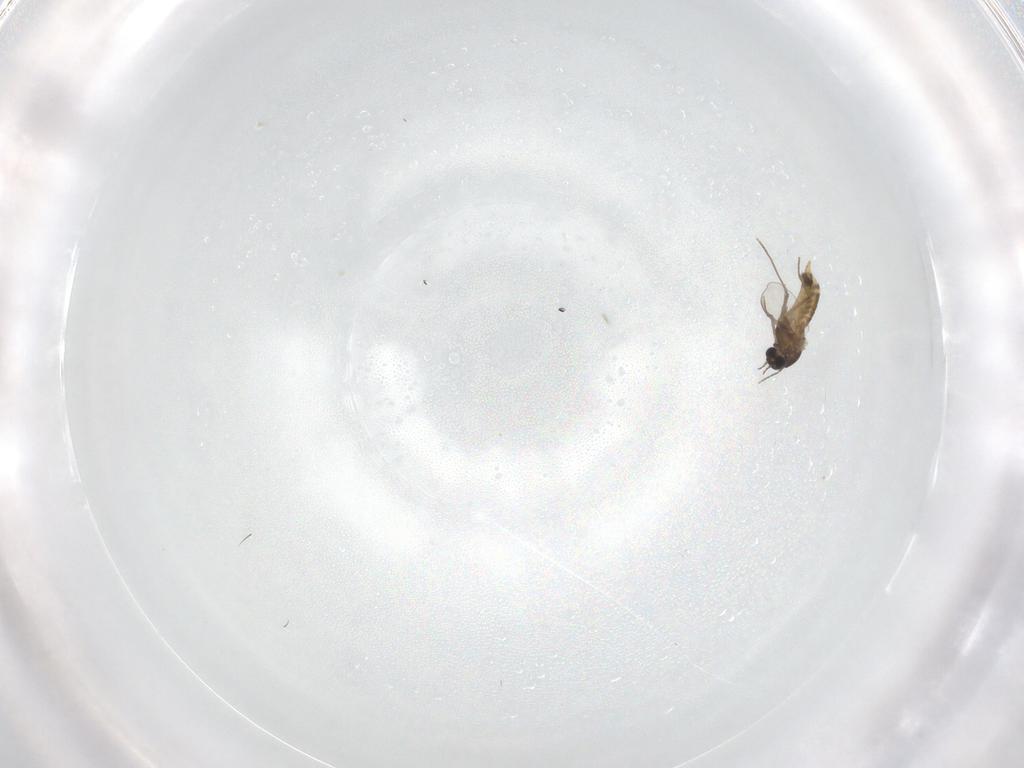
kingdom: Animalia
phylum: Arthropoda
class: Insecta
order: Diptera
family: Chironomidae
